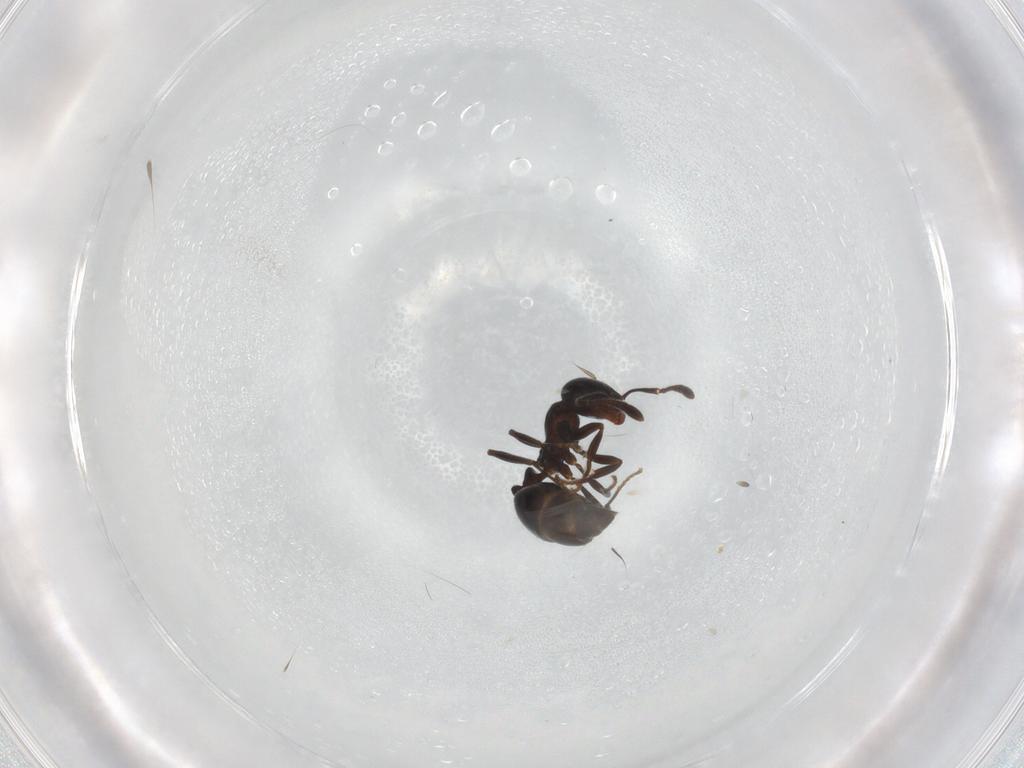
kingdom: Animalia
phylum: Arthropoda
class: Insecta
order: Hymenoptera
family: Formicidae
